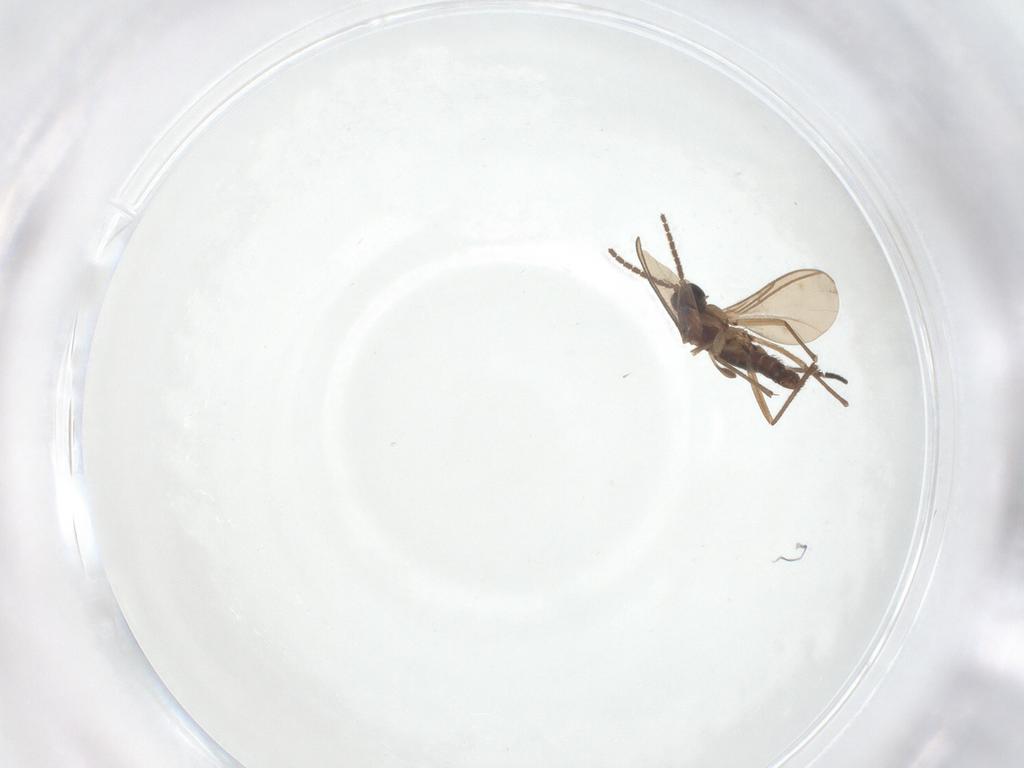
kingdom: Animalia
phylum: Arthropoda
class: Insecta
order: Diptera
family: Sciaridae
